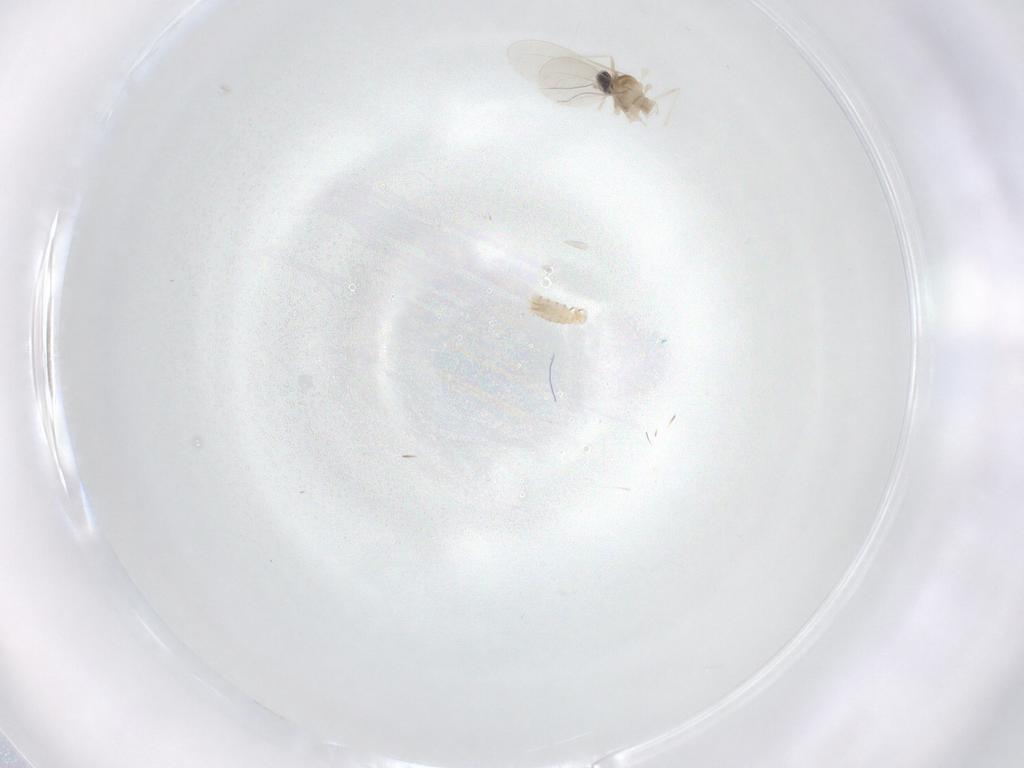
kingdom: Animalia
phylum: Arthropoda
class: Insecta
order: Diptera
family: Cecidomyiidae
